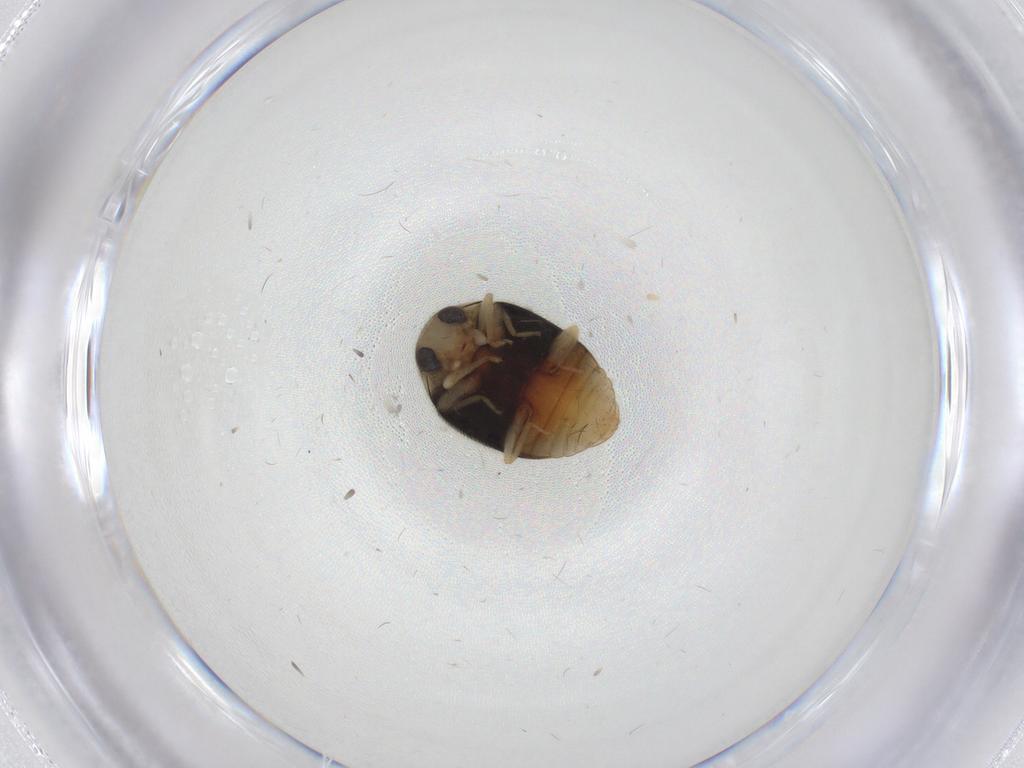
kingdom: Animalia
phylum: Arthropoda
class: Insecta
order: Coleoptera
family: Coccinellidae
